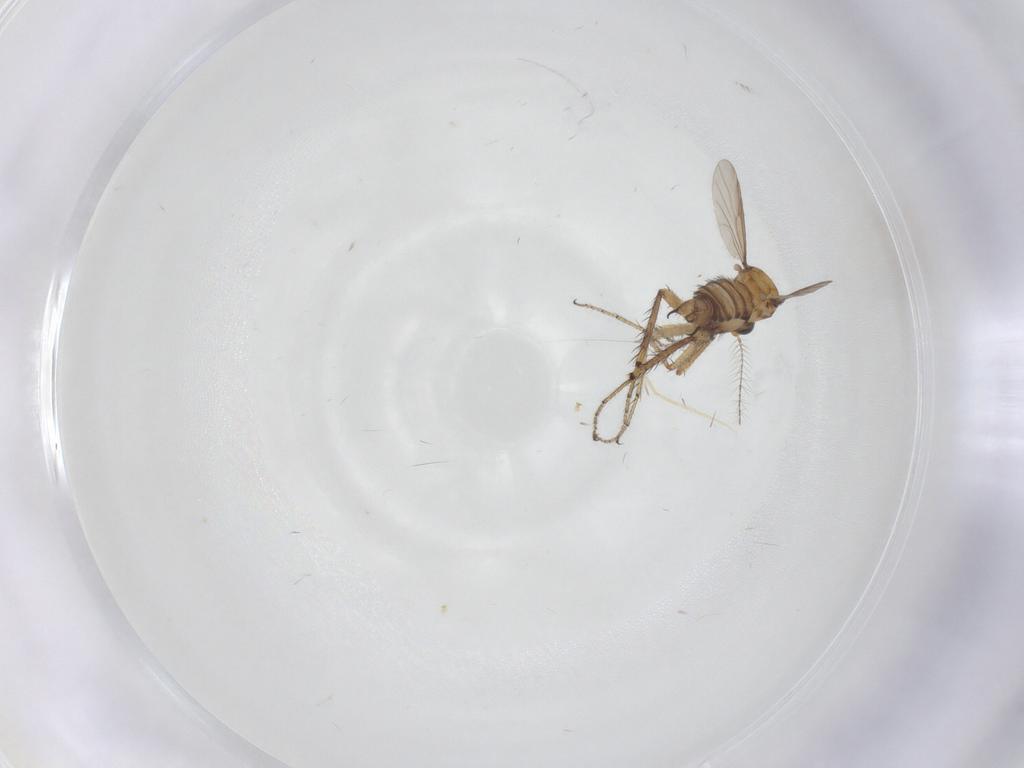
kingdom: Animalia
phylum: Arthropoda
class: Insecta
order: Diptera
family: Ceratopogonidae
